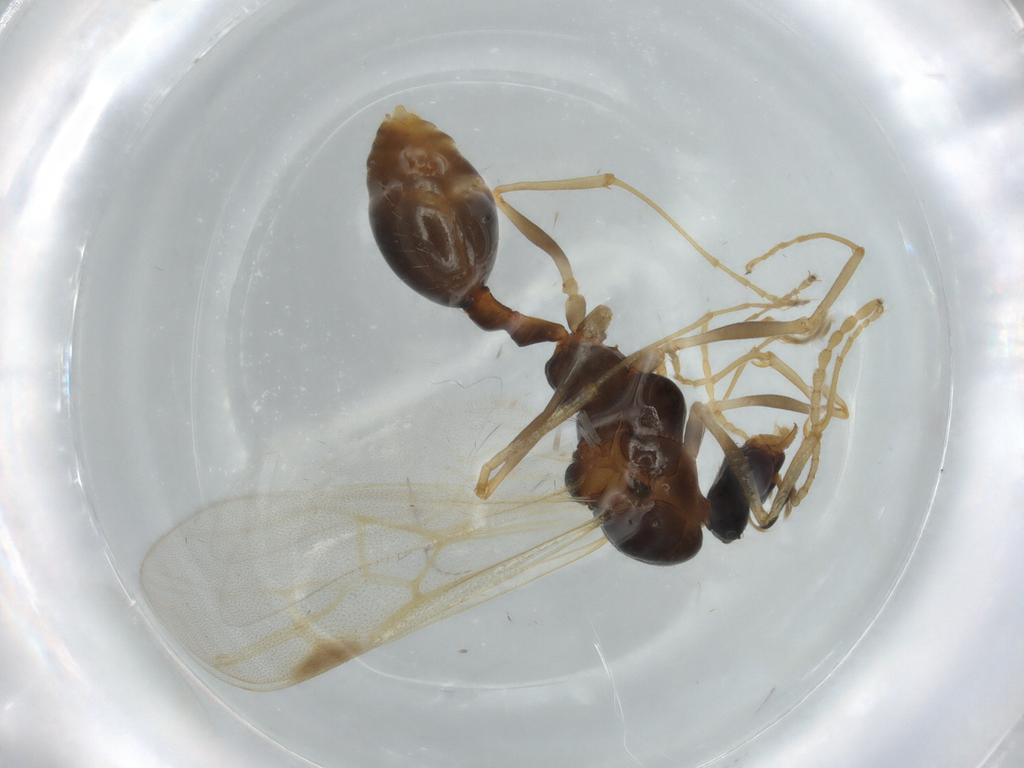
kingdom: Animalia
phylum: Arthropoda
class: Insecta
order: Hymenoptera
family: Formicidae
